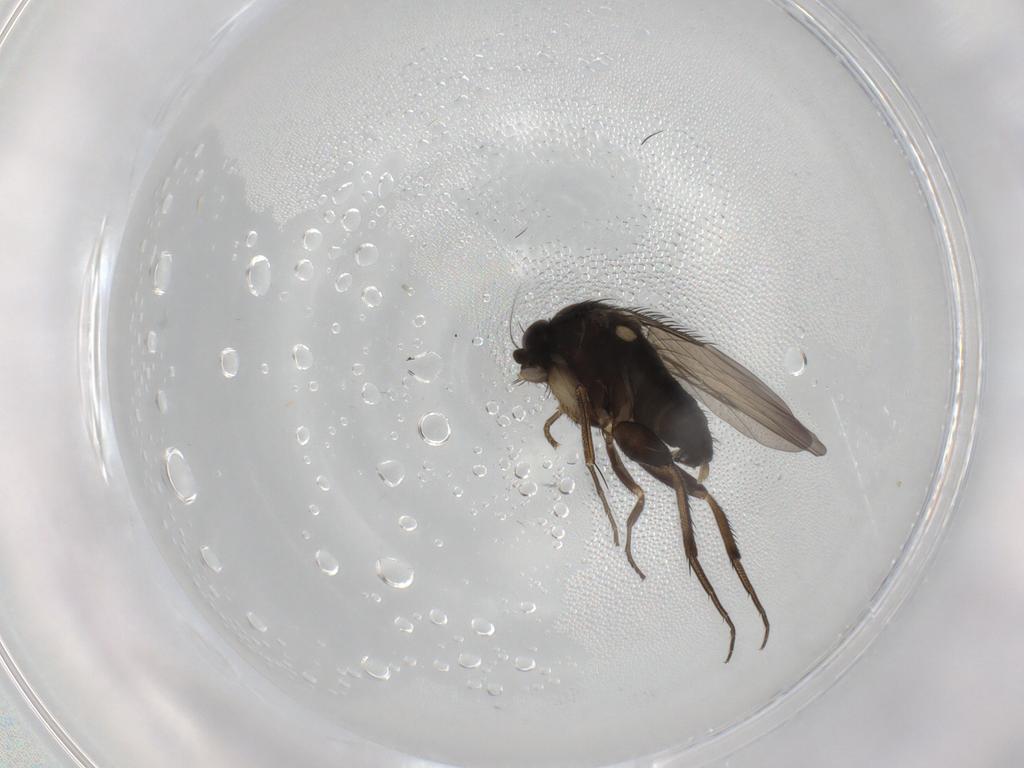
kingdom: Animalia
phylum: Arthropoda
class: Insecta
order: Diptera
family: Phoridae
